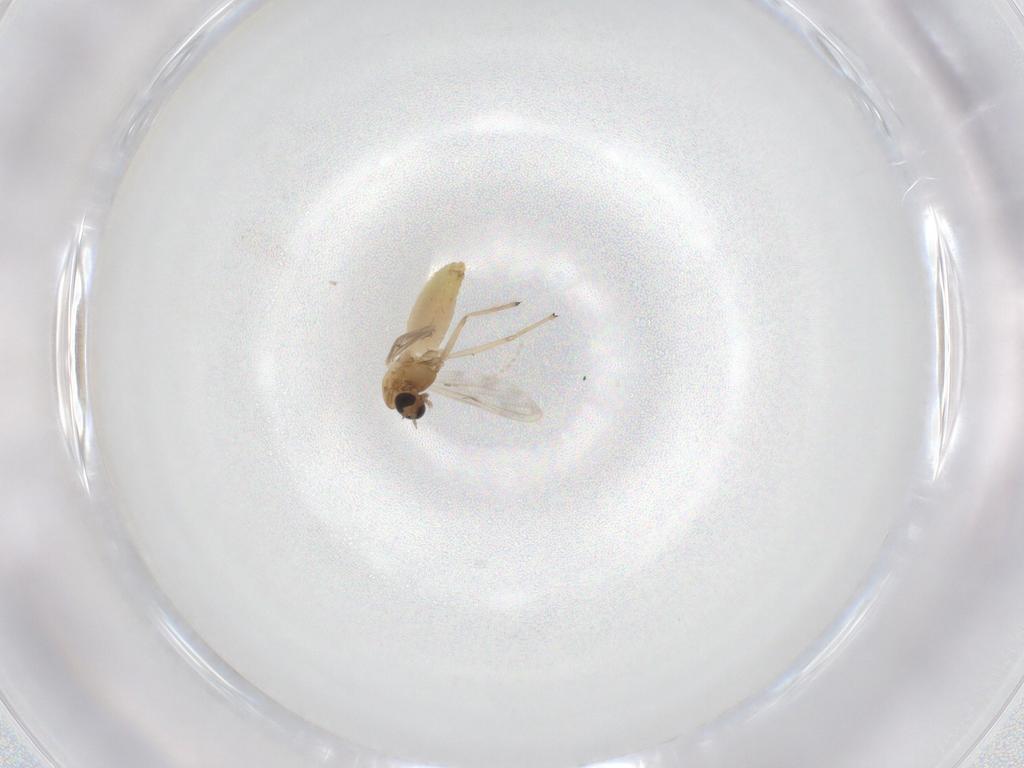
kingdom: Animalia
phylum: Arthropoda
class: Insecta
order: Diptera
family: Chironomidae
